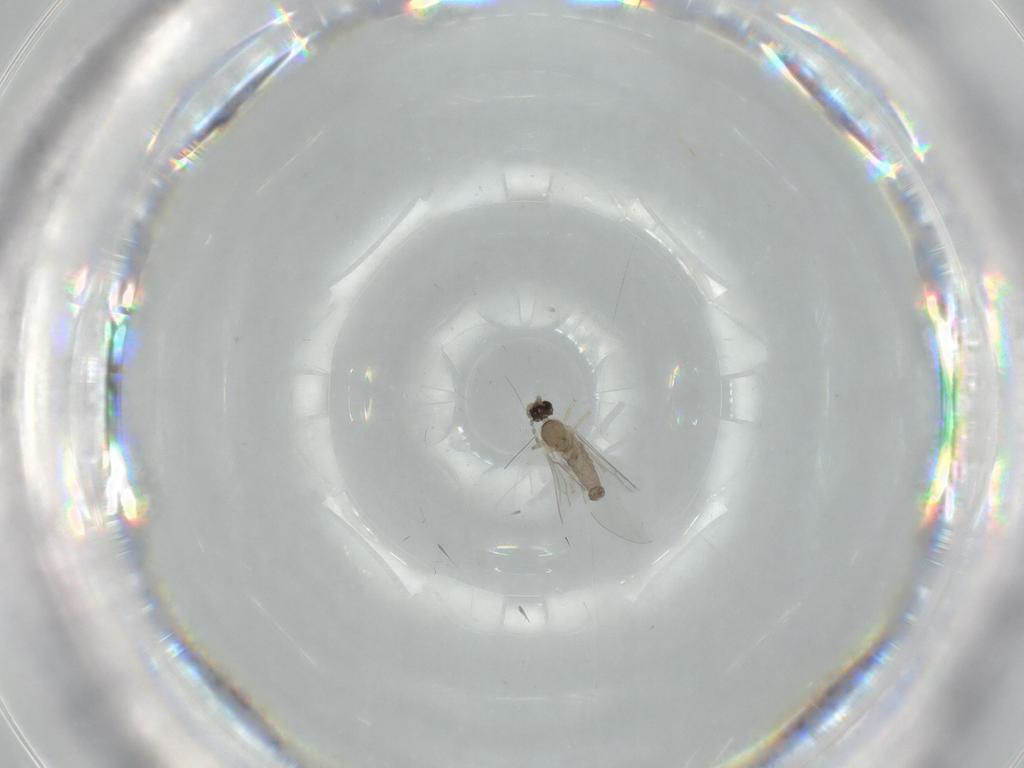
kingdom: Animalia
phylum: Arthropoda
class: Insecta
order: Diptera
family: Cecidomyiidae
